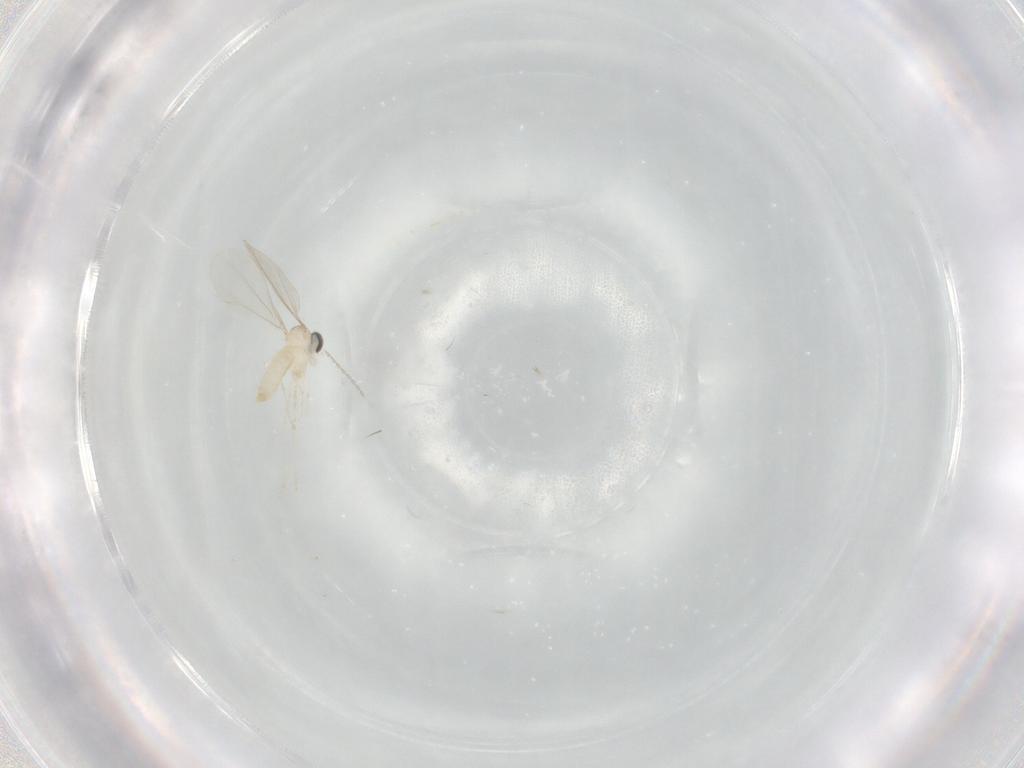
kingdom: Animalia
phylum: Arthropoda
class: Insecta
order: Diptera
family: Cecidomyiidae
